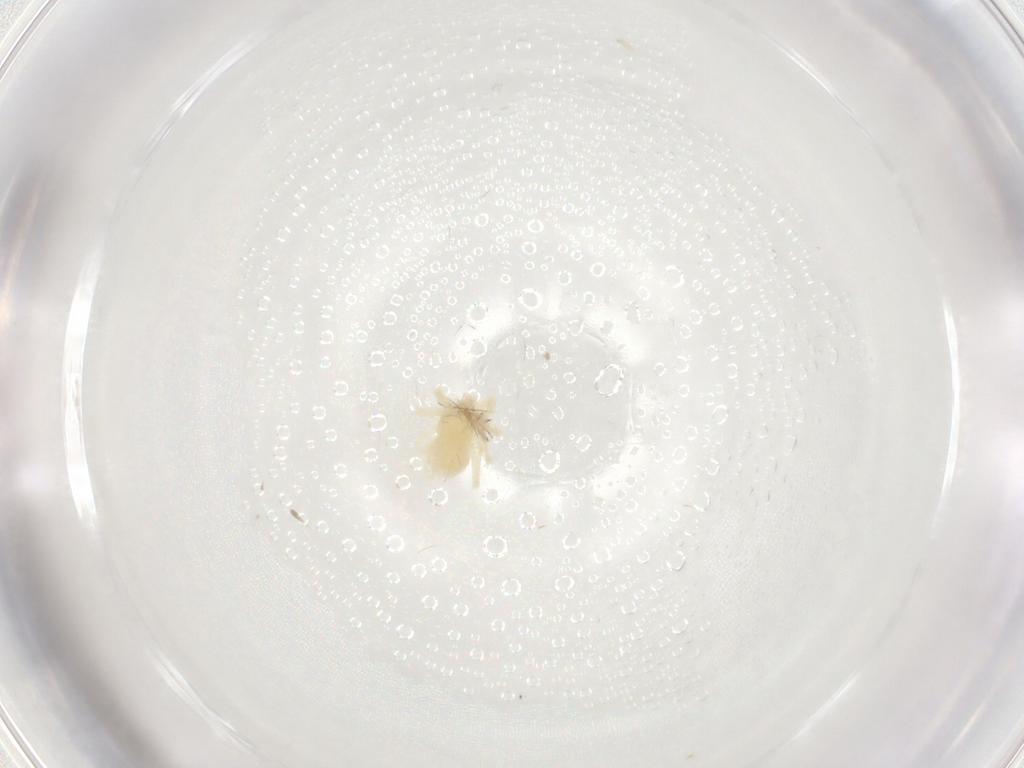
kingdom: Animalia
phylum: Arthropoda
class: Arachnida
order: Trombidiformes
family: Anystidae
